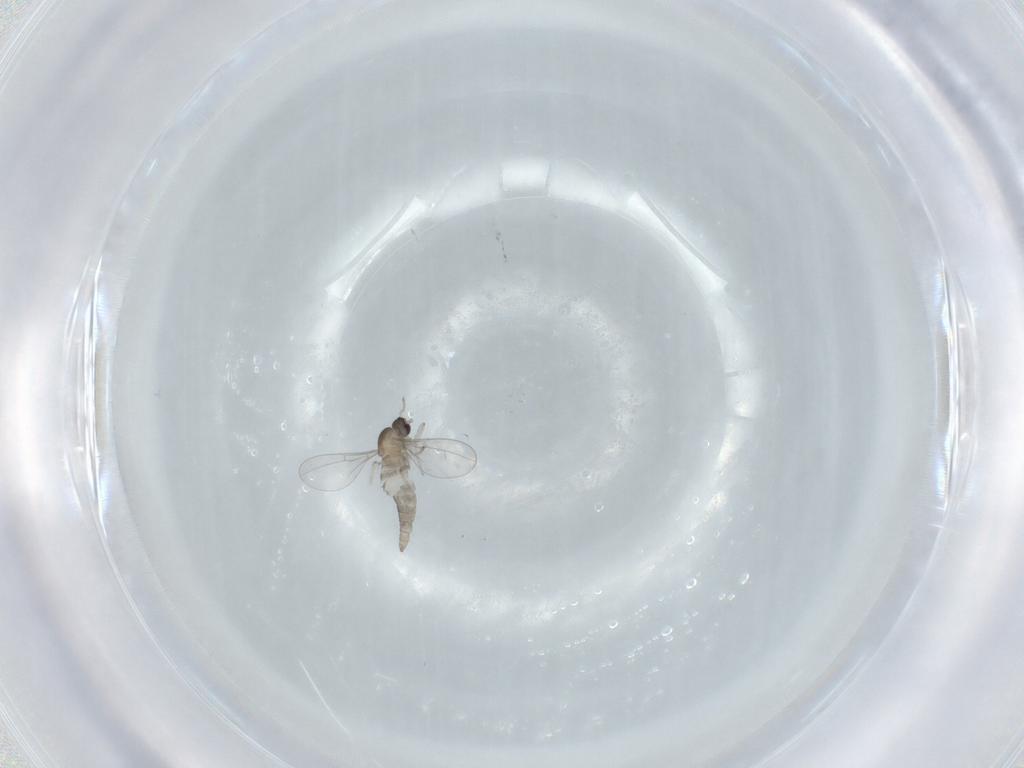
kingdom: Animalia
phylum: Arthropoda
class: Insecta
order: Diptera
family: Cecidomyiidae
